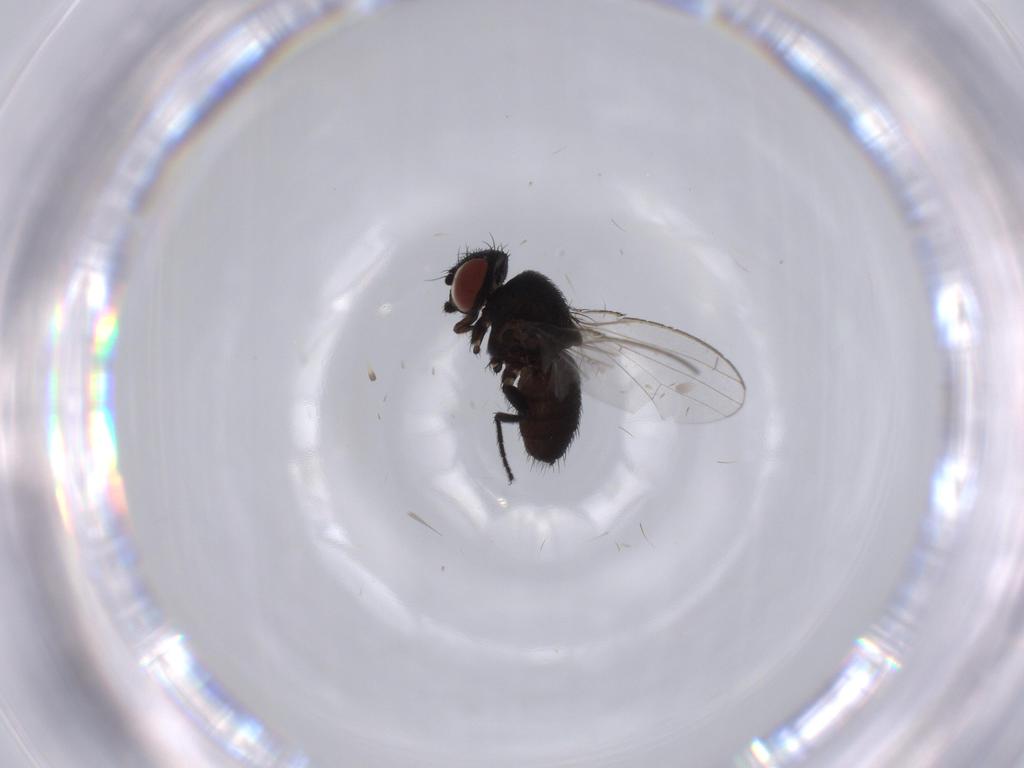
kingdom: Animalia
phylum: Arthropoda
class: Insecta
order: Diptera
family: Milichiidae
